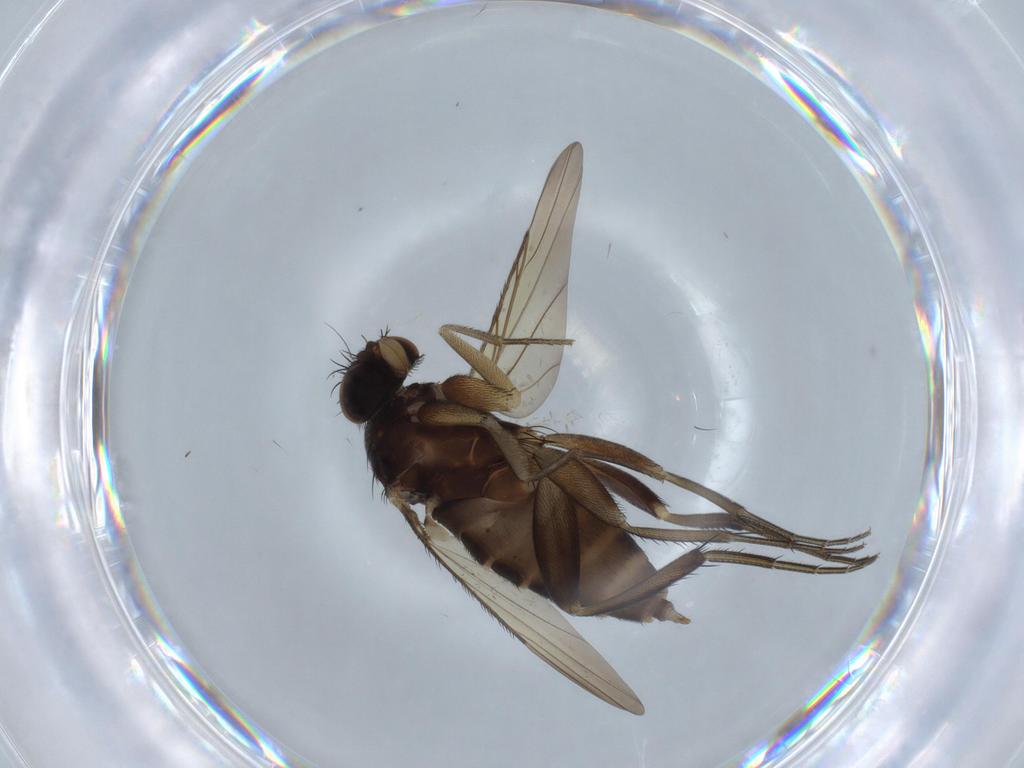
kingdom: Animalia
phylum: Arthropoda
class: Insecta
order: Diptera
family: Phoridae
